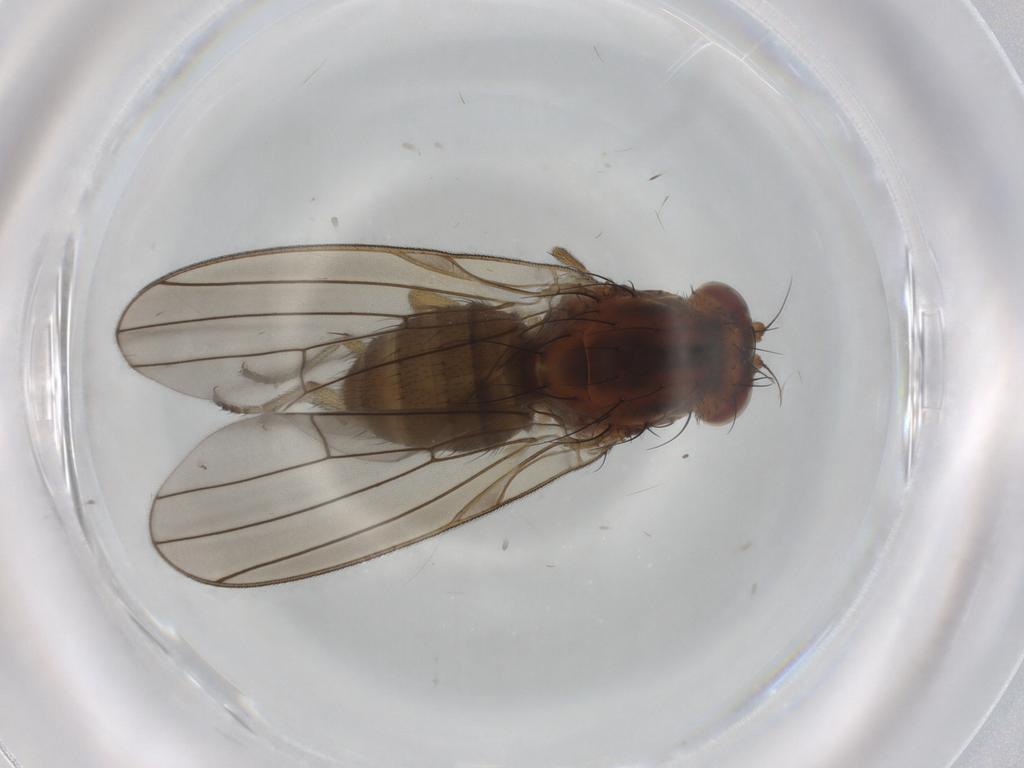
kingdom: Animalia
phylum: Arthropoda
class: Insecta
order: Diptera
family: Lauxaniidae
